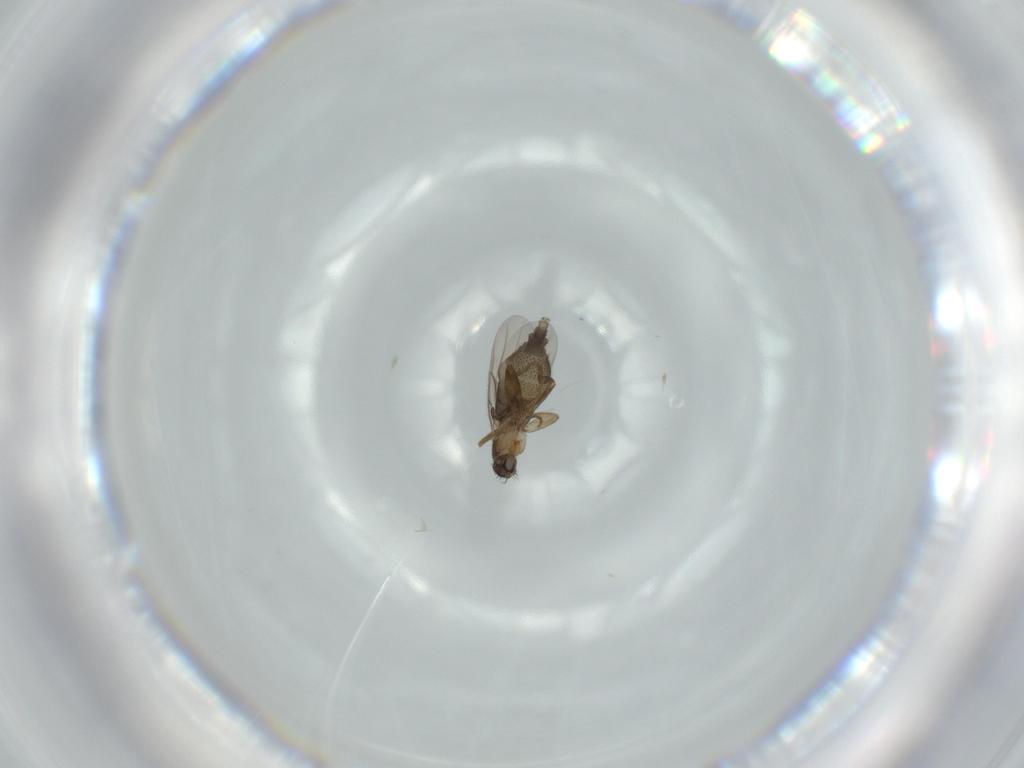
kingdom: Animalia
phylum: Arthropoda
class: Insecta
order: Diptera
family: Phoridae
